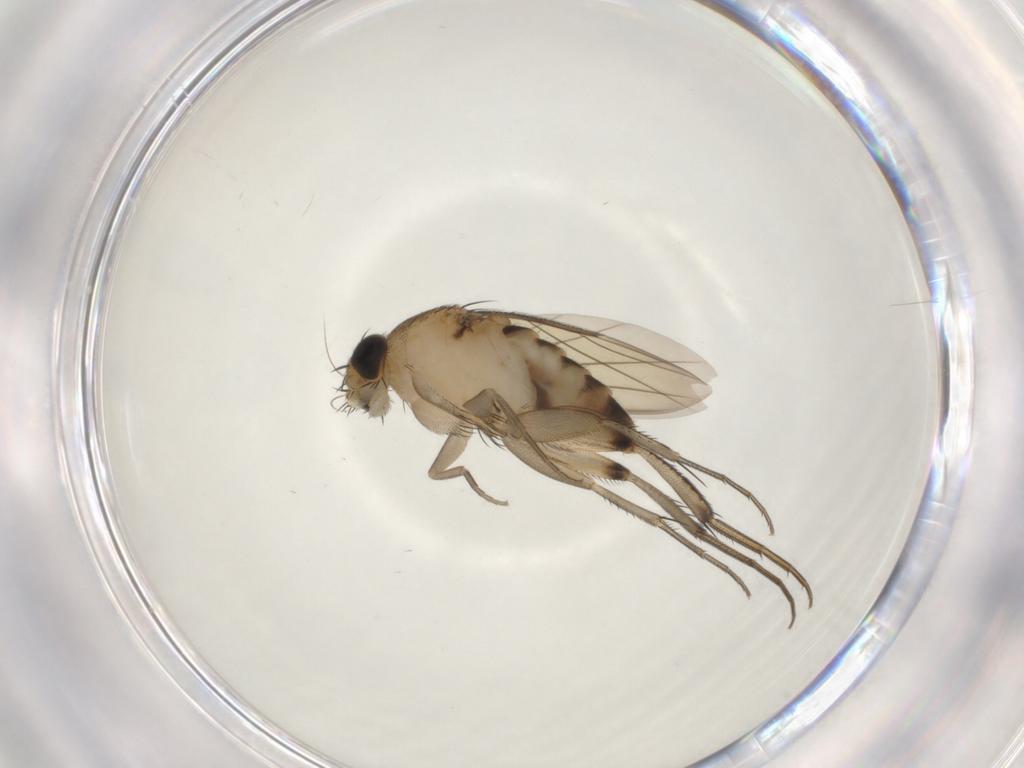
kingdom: Animalia
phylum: Arthropoda
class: Insecta
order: Diptera
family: Phoridae
